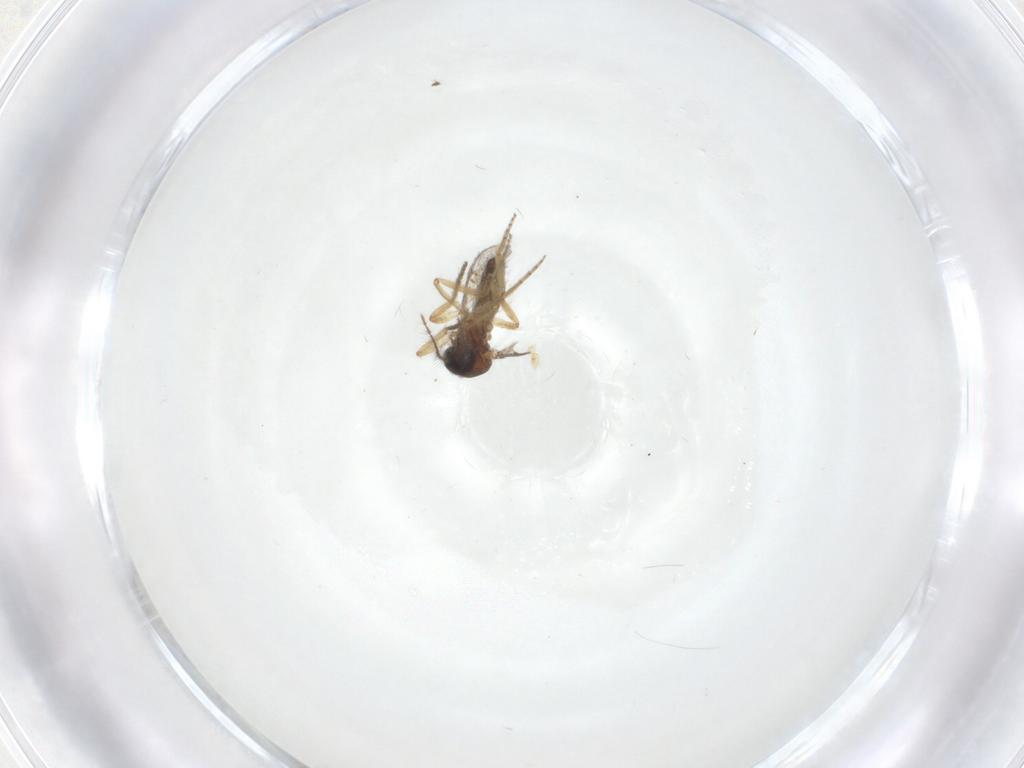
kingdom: Animalia
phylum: Arthropoda
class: Insecta
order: Diptera
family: Ceratopogonidae
